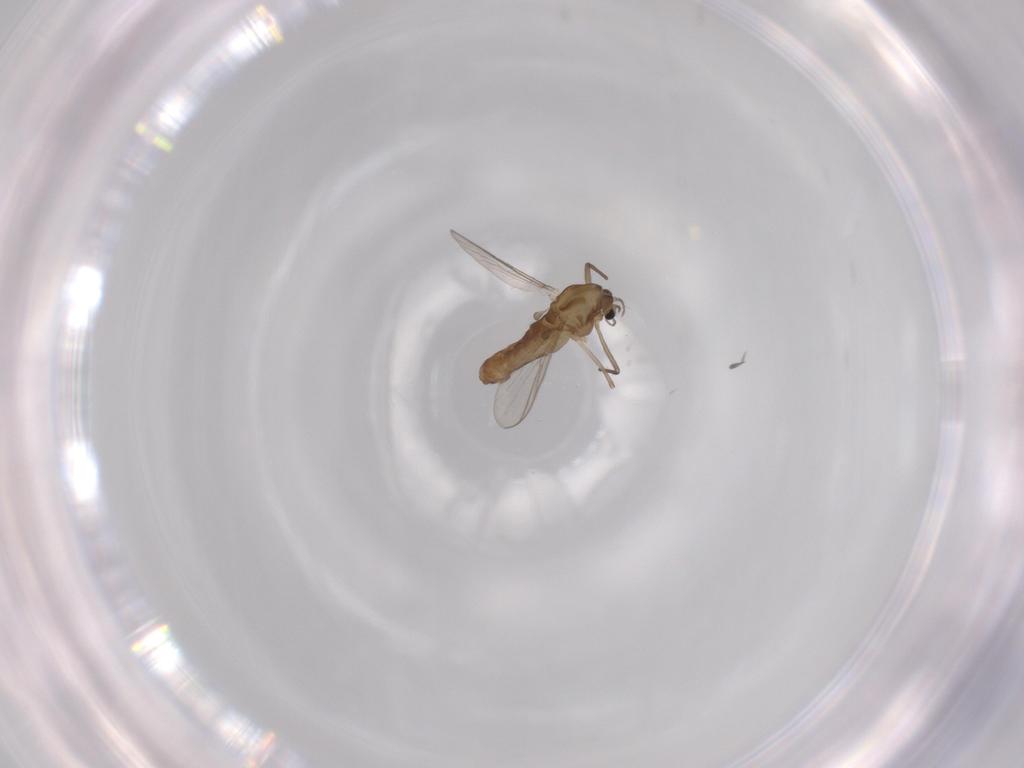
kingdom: Animalia
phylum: Arthropoda
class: Insecta
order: Diptera
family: Chironomidae
